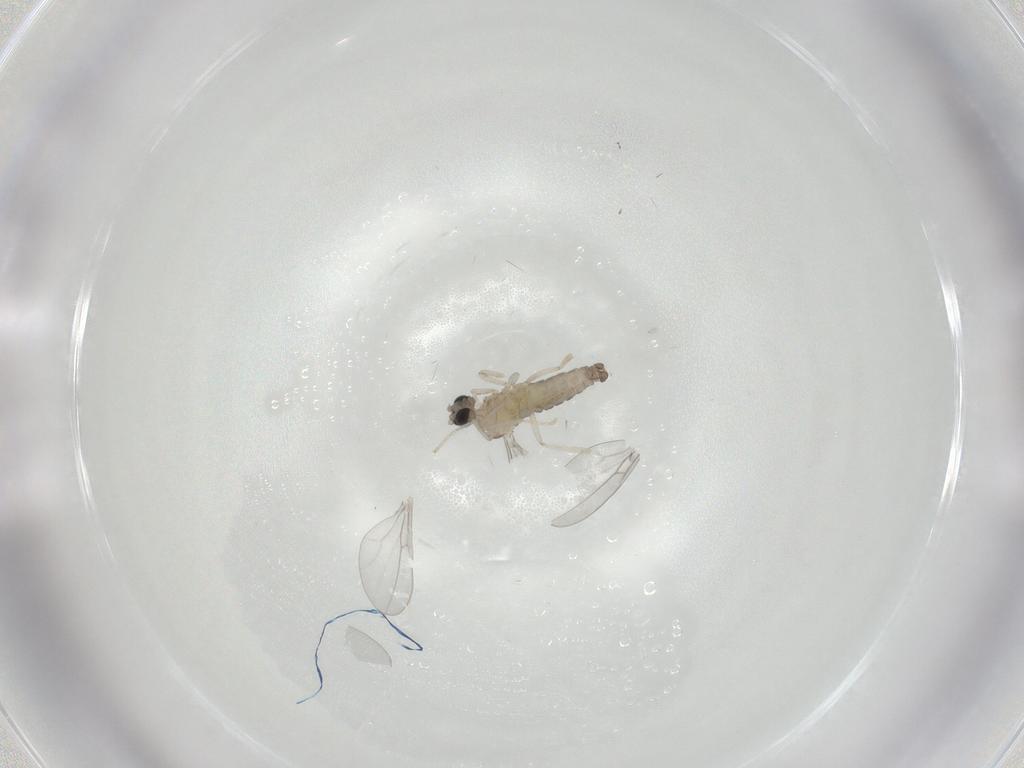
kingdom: Animalia
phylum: Arthropoda
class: Insecta
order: Diptera
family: Cecidomyiidae
